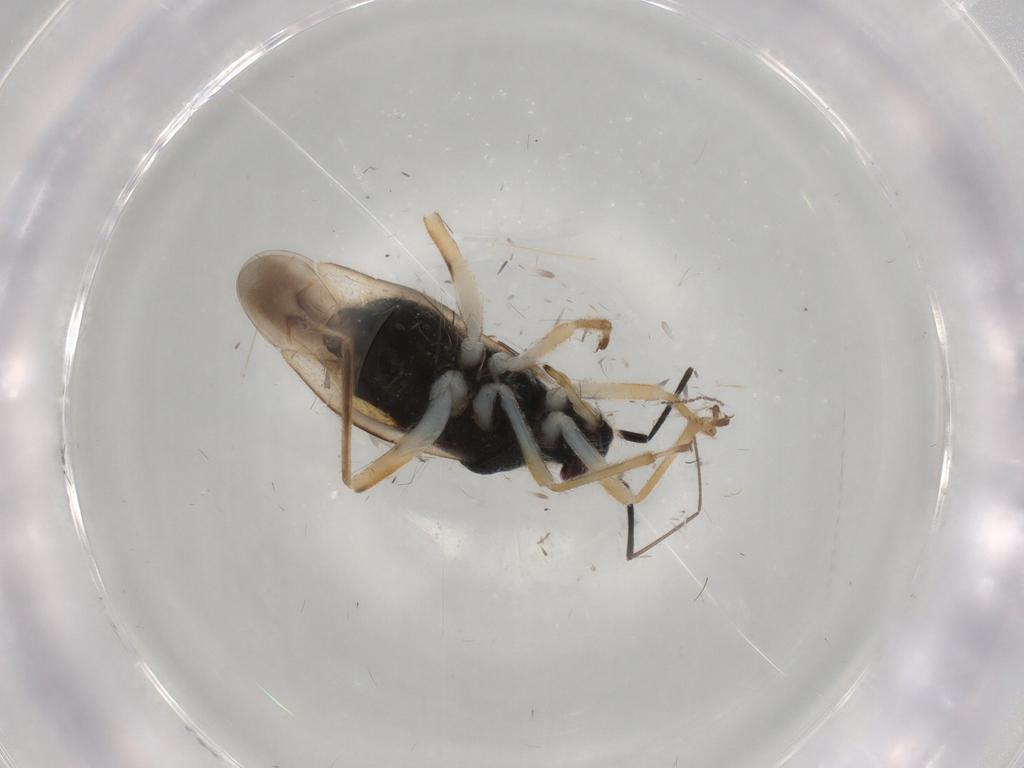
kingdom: Animalia
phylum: Arthropoda
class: Insecta
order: Hemiptera
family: Miridae
